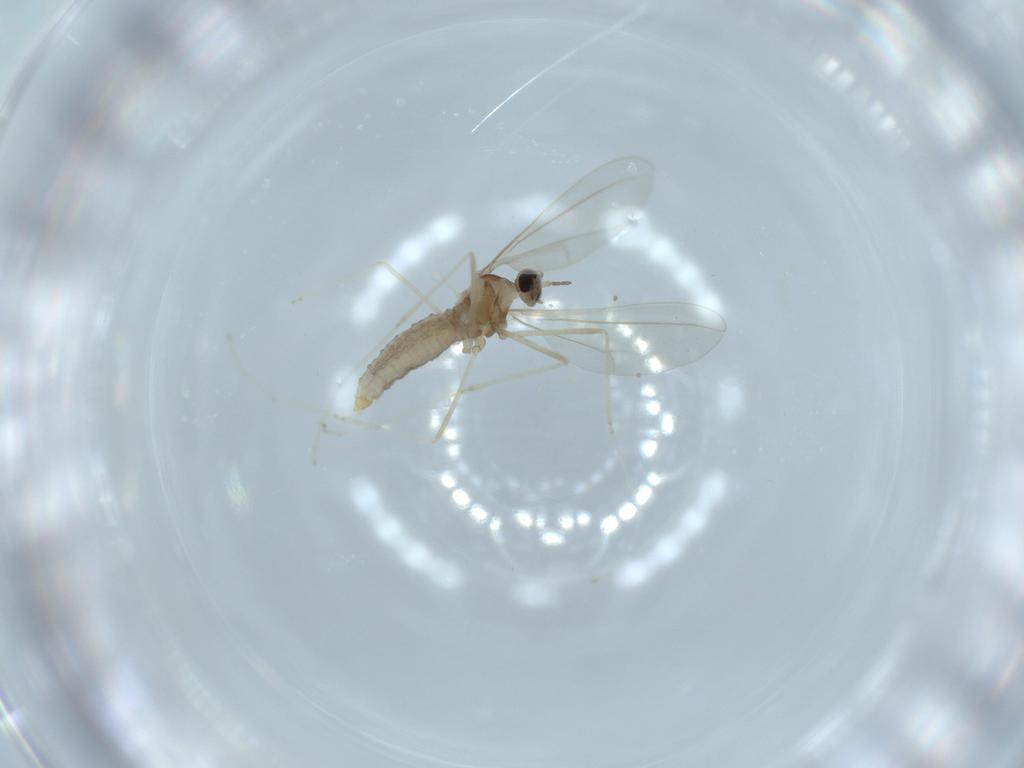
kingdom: Animalia
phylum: Arthropoda
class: Insecta
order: Diptera
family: Cecidomyiidae
